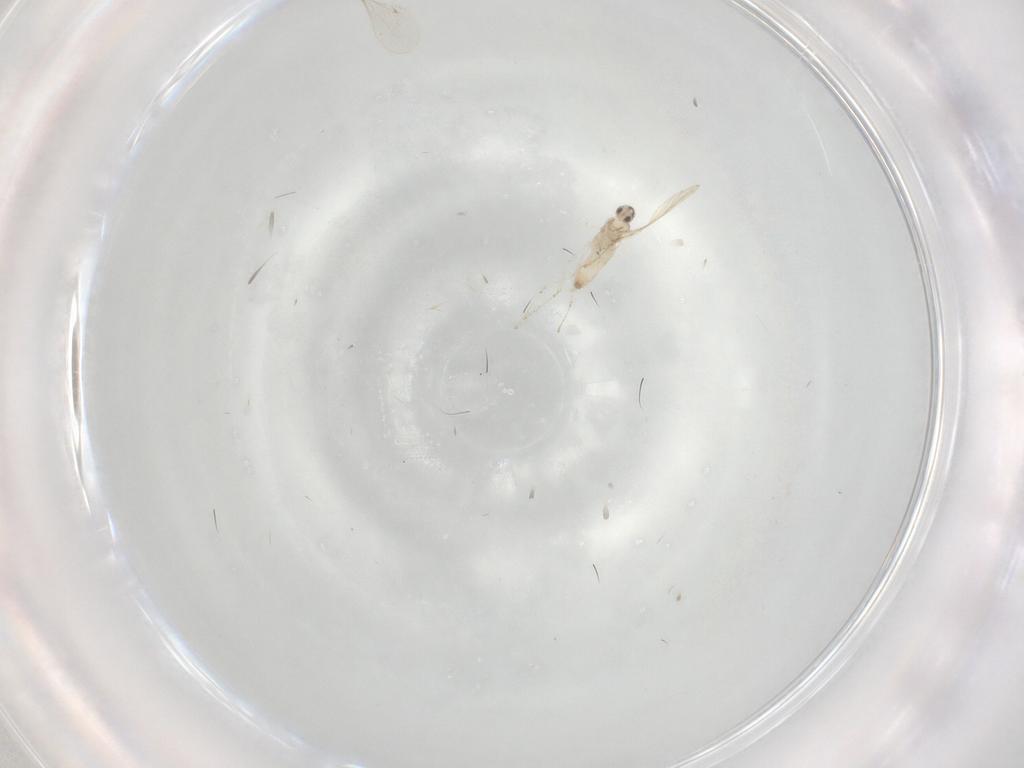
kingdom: Animalia
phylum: Arthropoda
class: Insecta
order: Diptera
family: Cecidomyiidae
